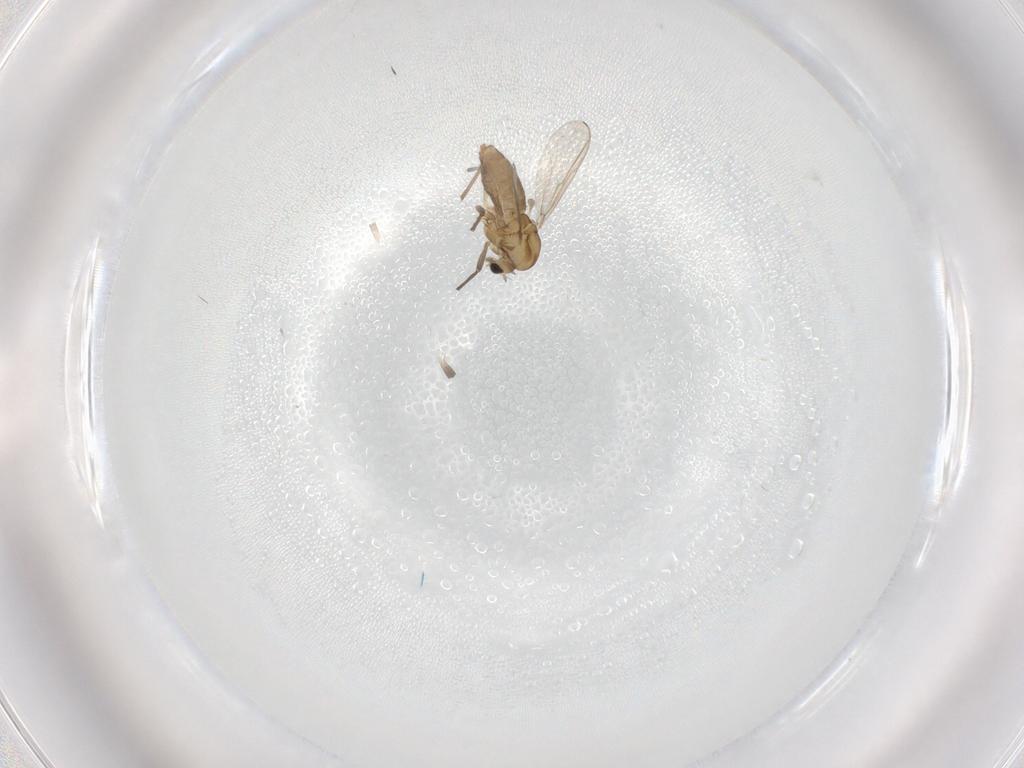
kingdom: Animalia
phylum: Arthropoda
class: Insecta
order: Diptera
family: Chironomidae
